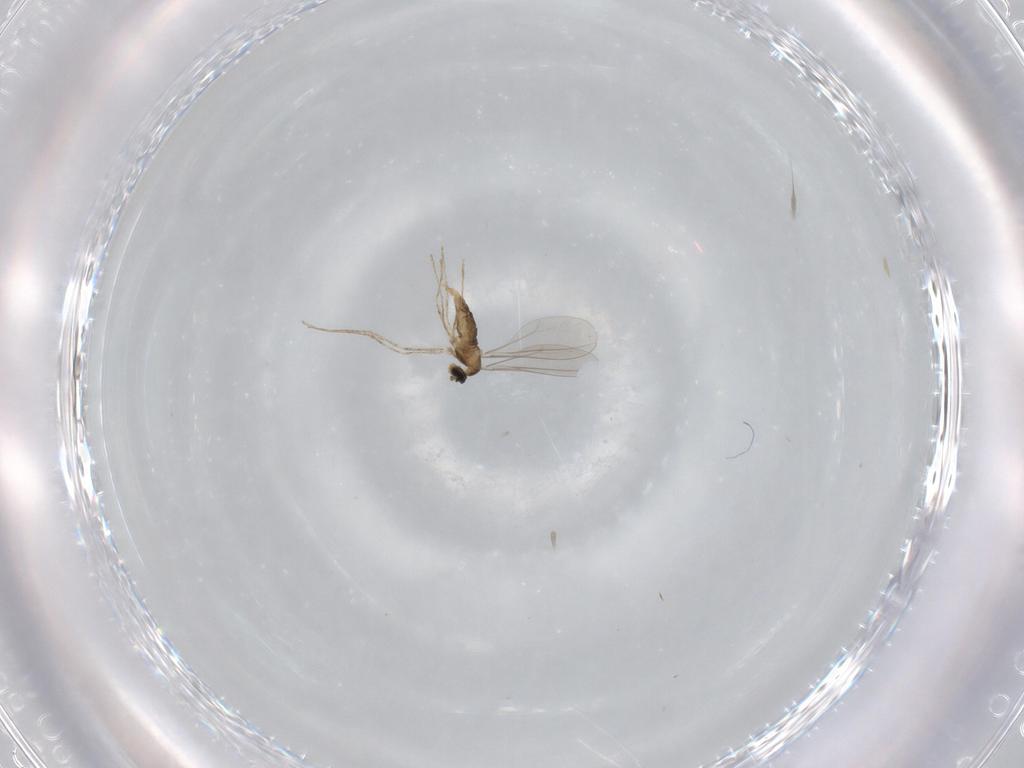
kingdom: Animalia
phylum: Arthropoda
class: Insecta
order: Diptera
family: Cecidomyiidae
